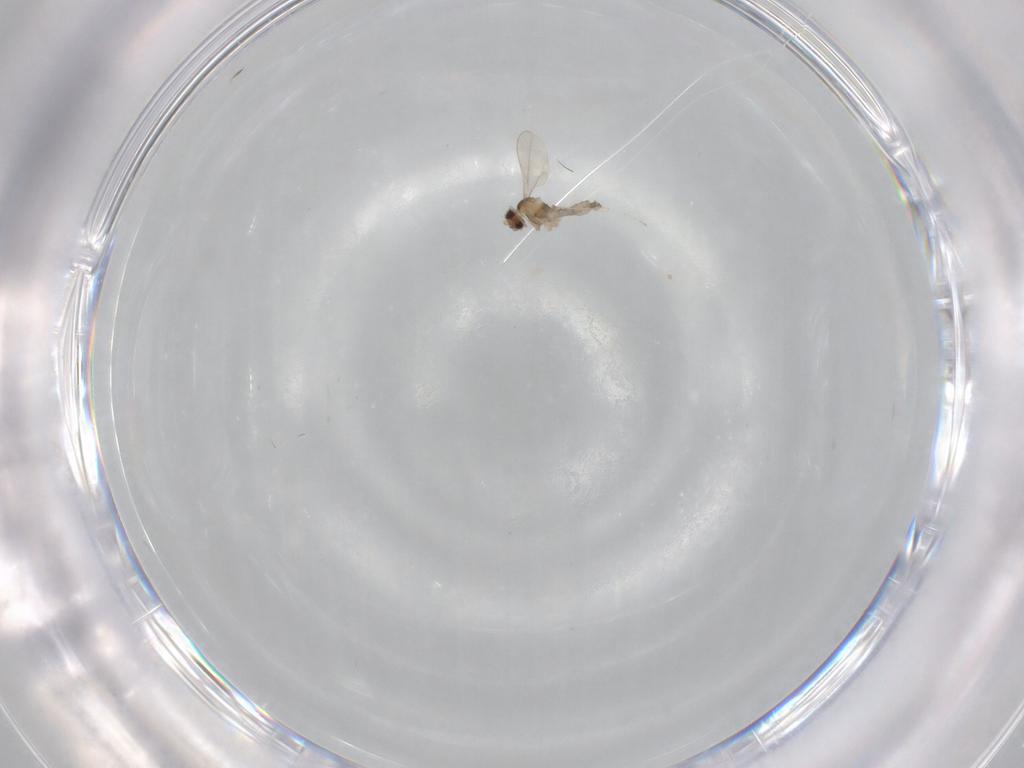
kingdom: Animalia
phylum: Arthropoda
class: Insecta
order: Diptera
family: Cecidomyiidae
